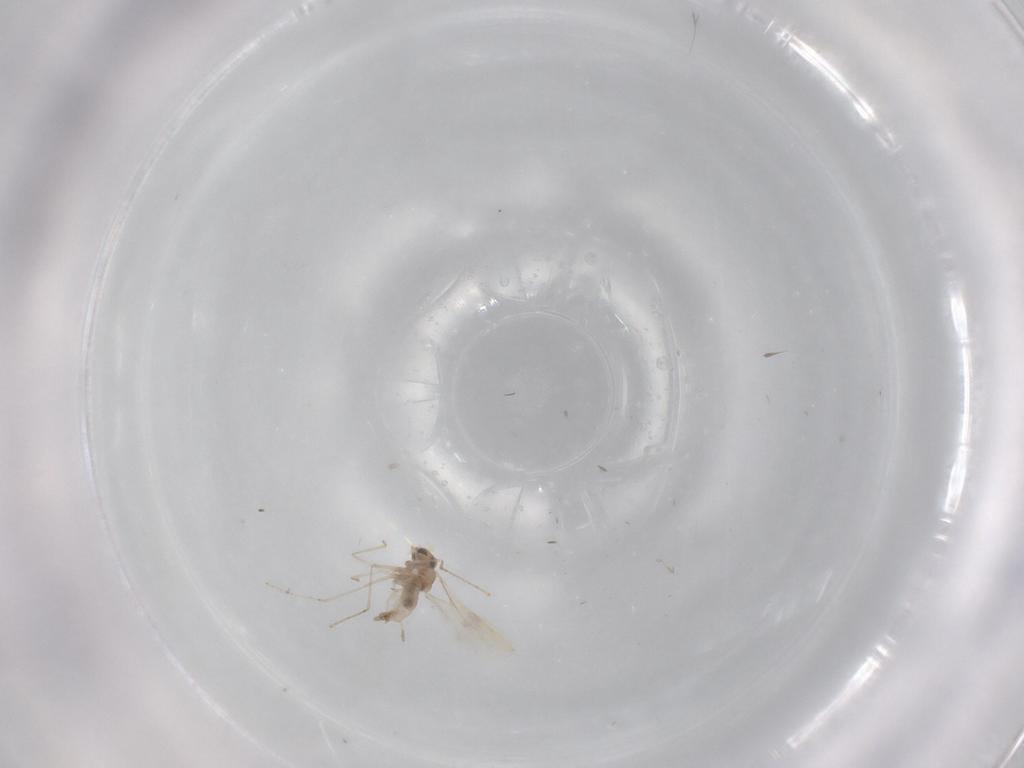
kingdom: Animalia
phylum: Arthropoda
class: Insecta
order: Diptera
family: Cecidomyiidae
